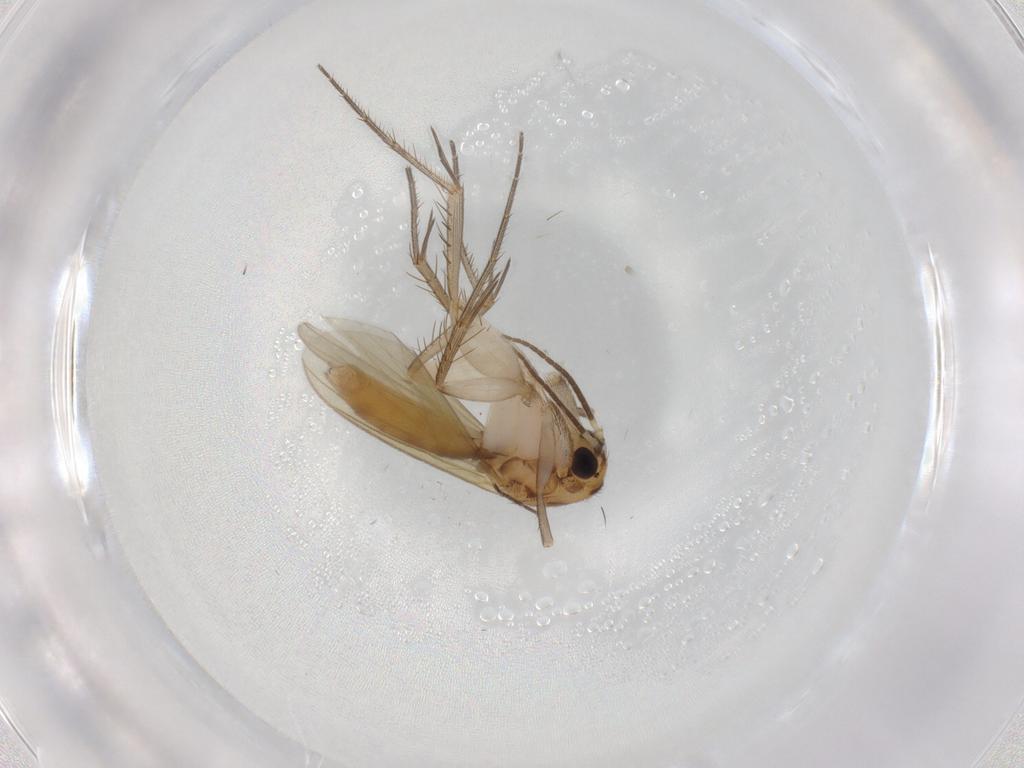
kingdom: Animalia
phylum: Arthropoda
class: Insecta
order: Diptera
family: Mycetophilidae
